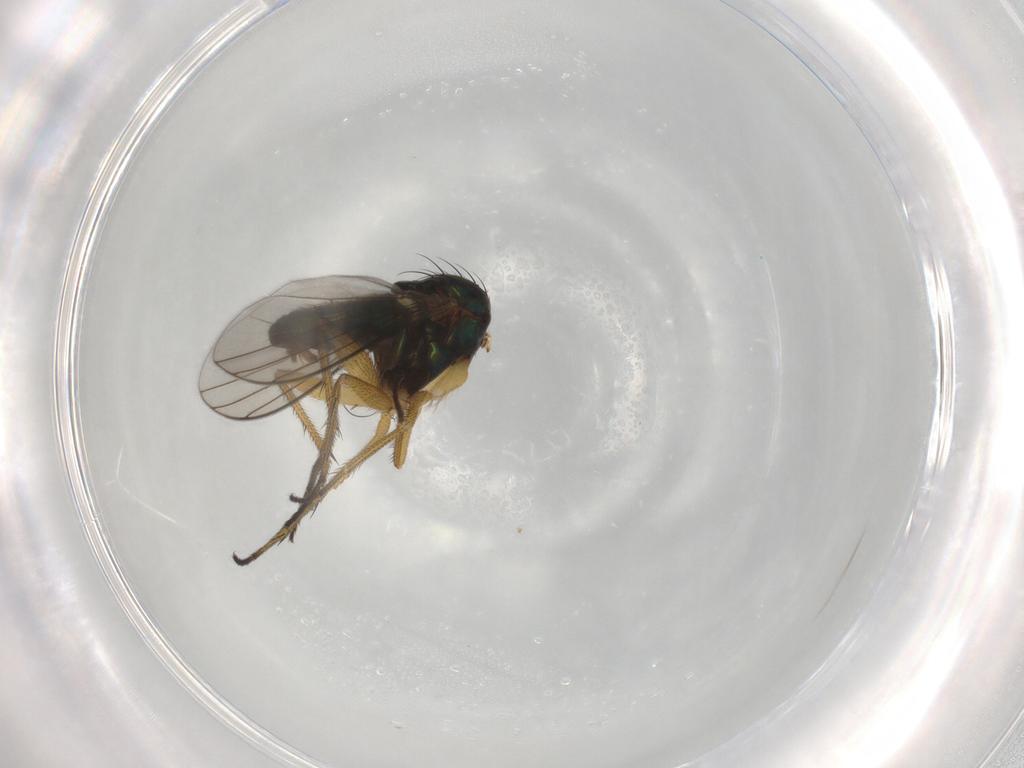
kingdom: Animalia
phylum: Arthropoda
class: Insecta
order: Diptera
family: Dolichopodidae
